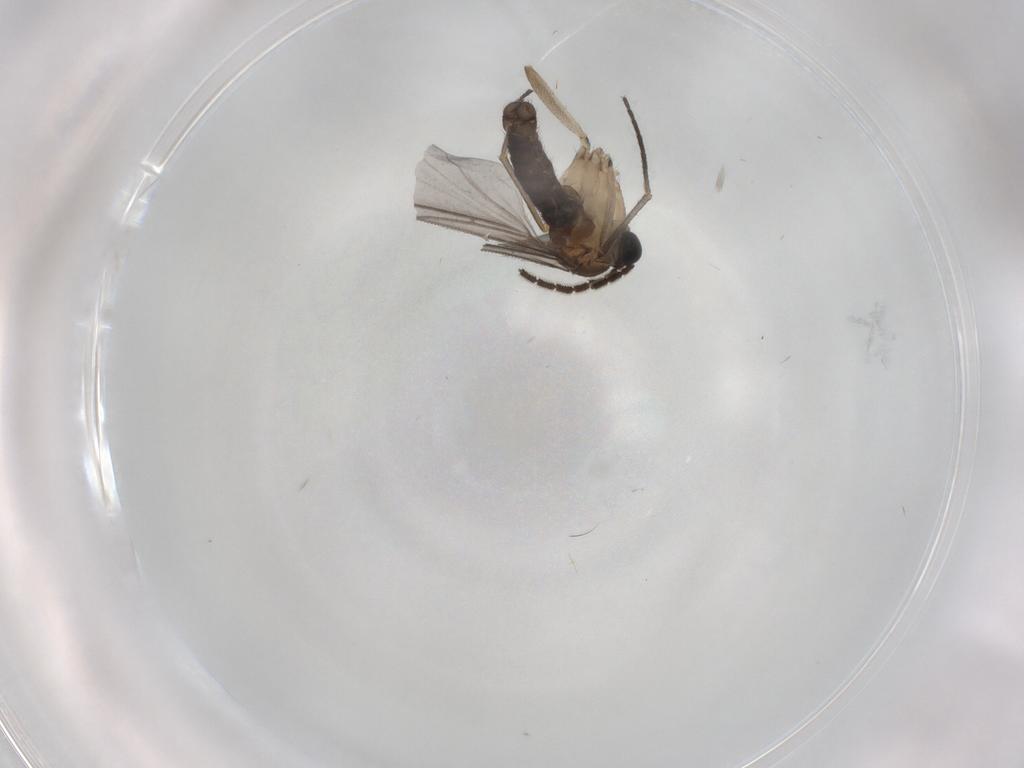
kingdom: Animalia
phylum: Arthropoda
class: Insecta
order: Diptera
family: Sciaridae
